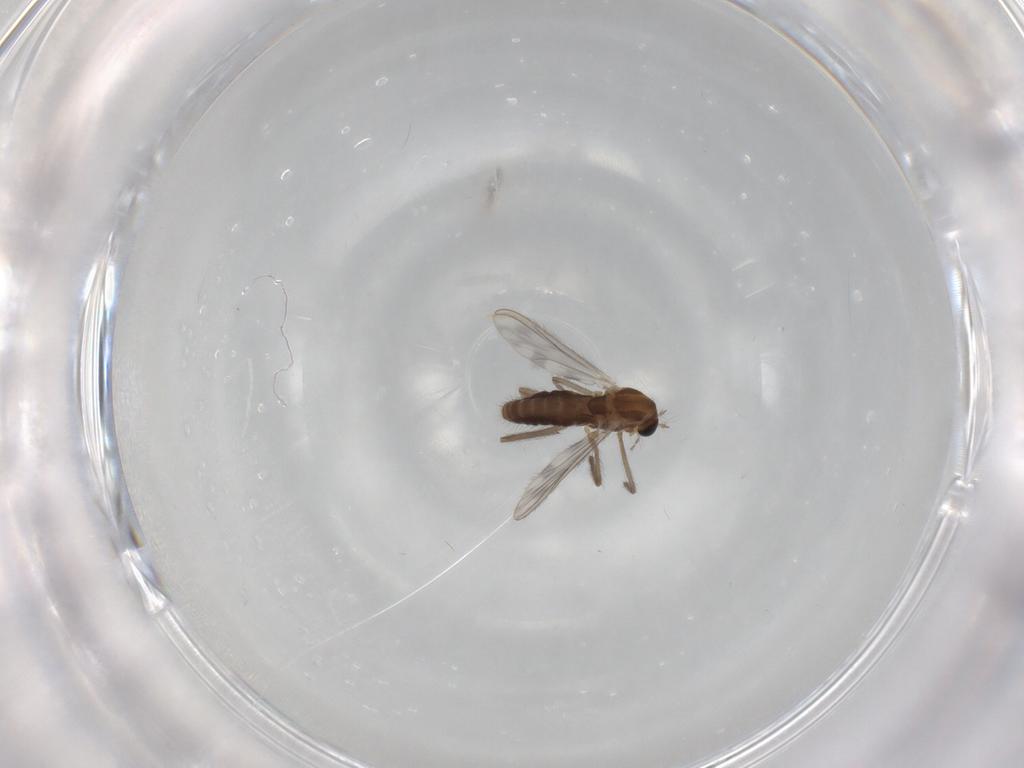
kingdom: Animalia
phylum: Arthropoda
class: Insecta
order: Diptera
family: Chironomidae
